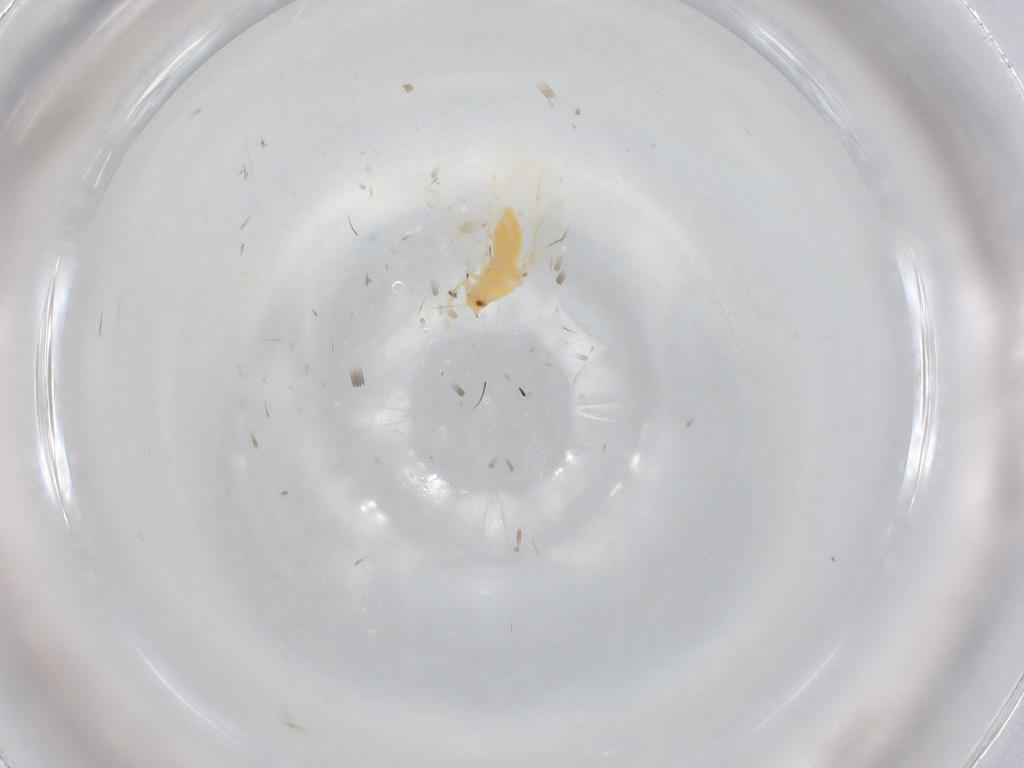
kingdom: Animalia
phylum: Arthropoda
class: Insecta
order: Hemiptera
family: Aleyrodidae
